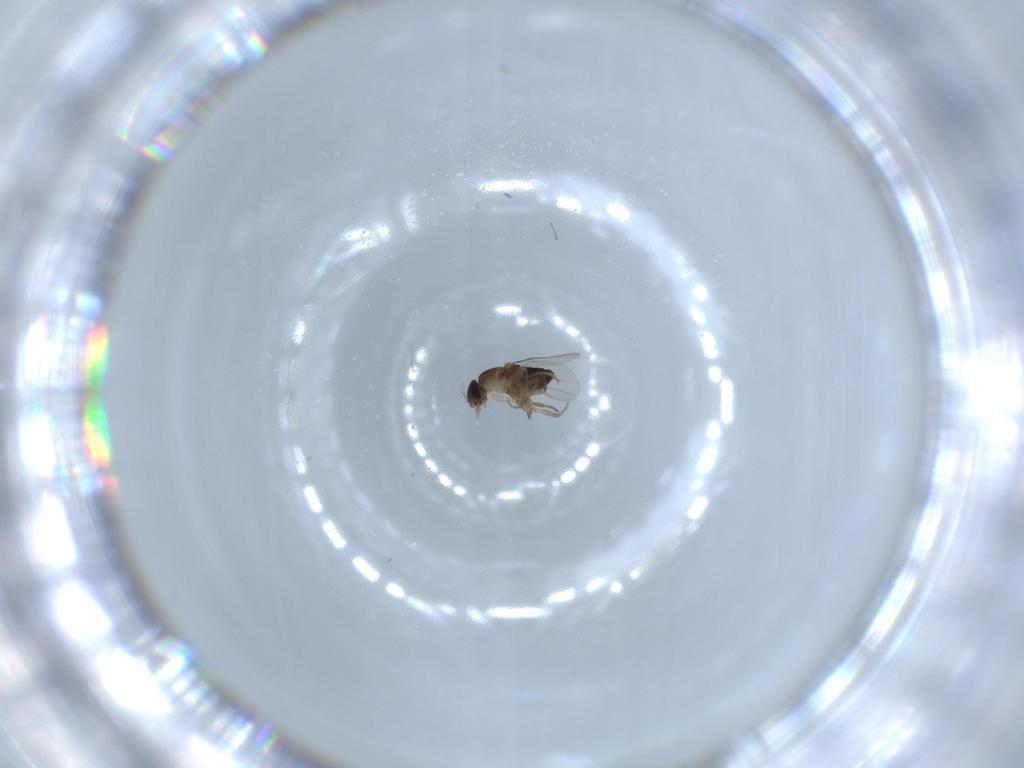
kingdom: Animalia
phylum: Arthropoda
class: Insecta
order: Diptera
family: Phoridae
